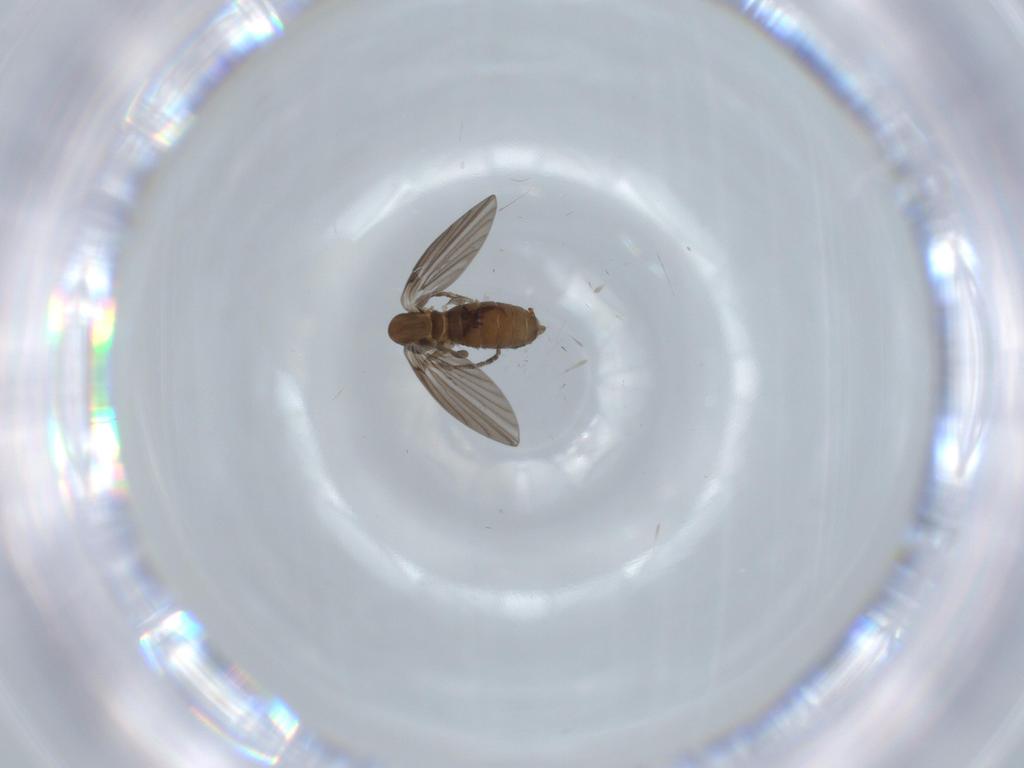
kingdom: Animalia
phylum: Arthropoda
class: Insecta
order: Diptera
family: Psychodidae
